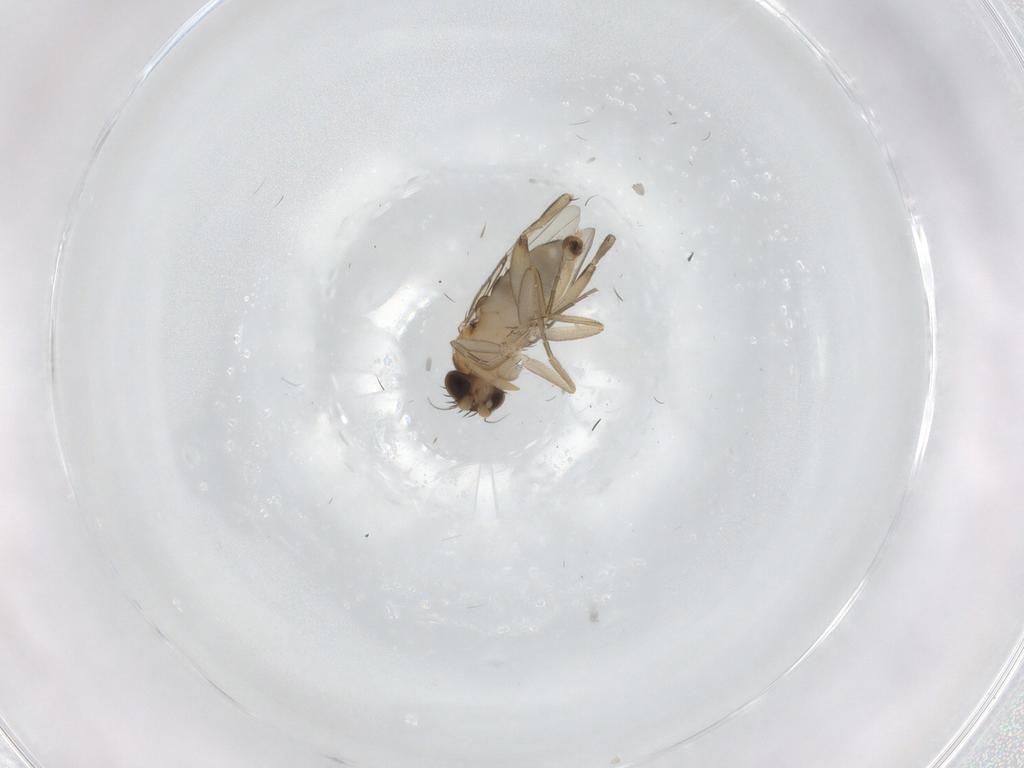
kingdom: Animalia
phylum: Arthropoda
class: Insecta
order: Diptera
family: Phoridae
